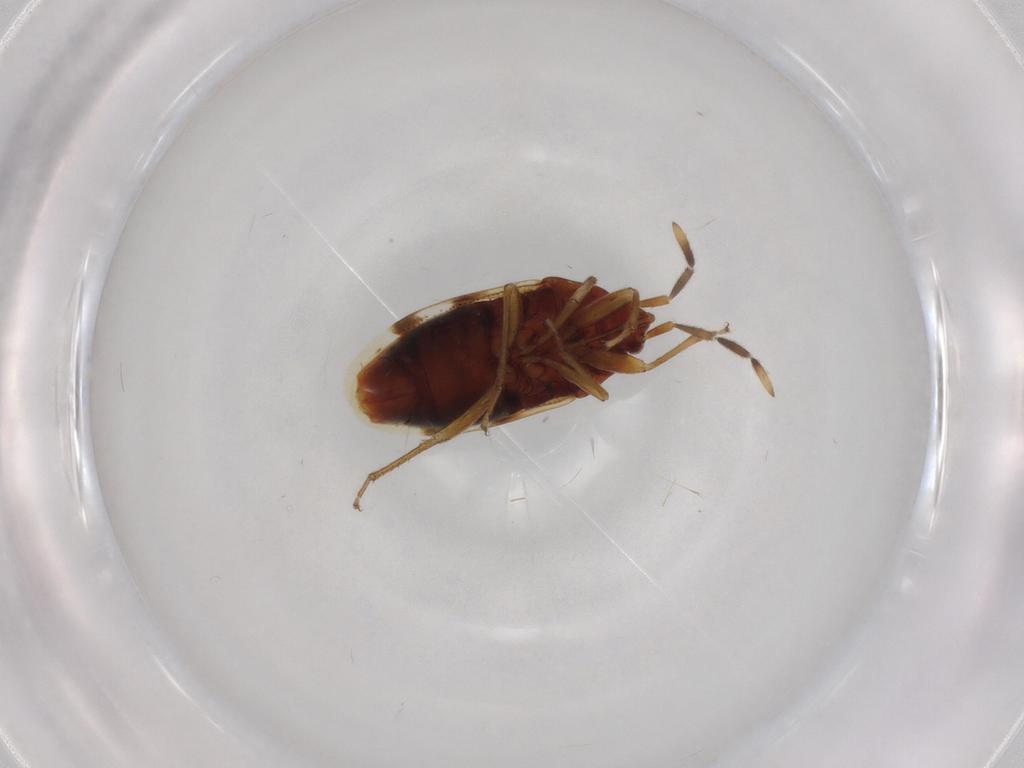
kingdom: Animalia
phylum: Arthropoda
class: Insecta
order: Hemiptera
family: Rhyparochromidae
